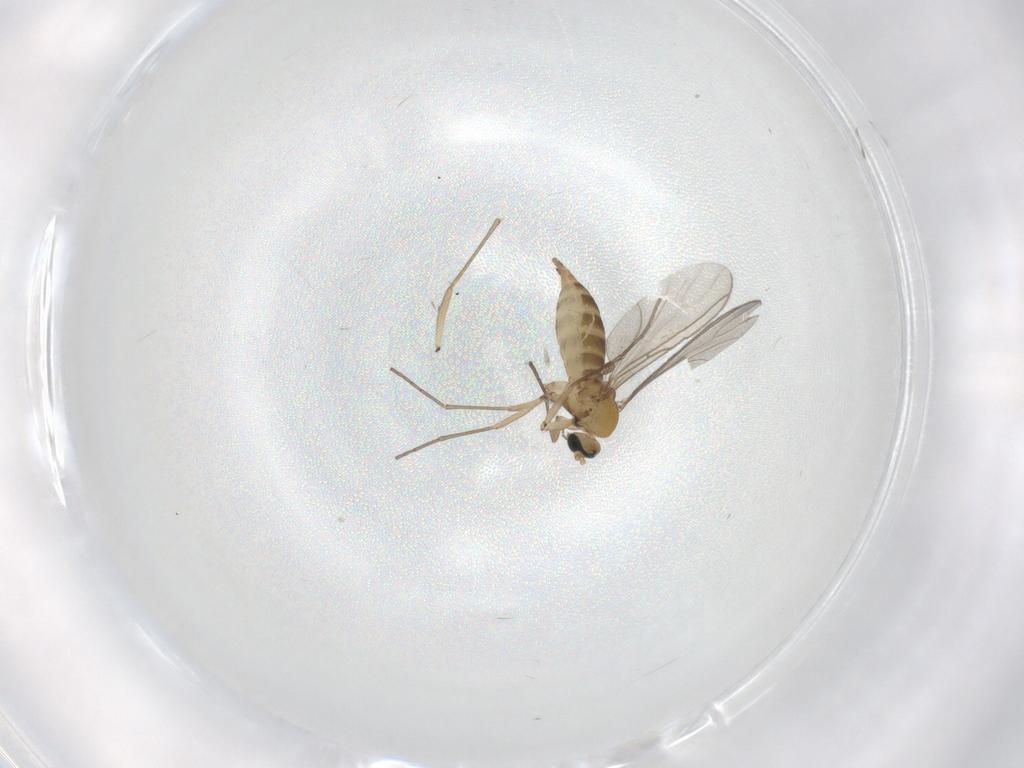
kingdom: Animalia
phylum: Arthropoda
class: Insecta
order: Diptera
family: Sciaridae
